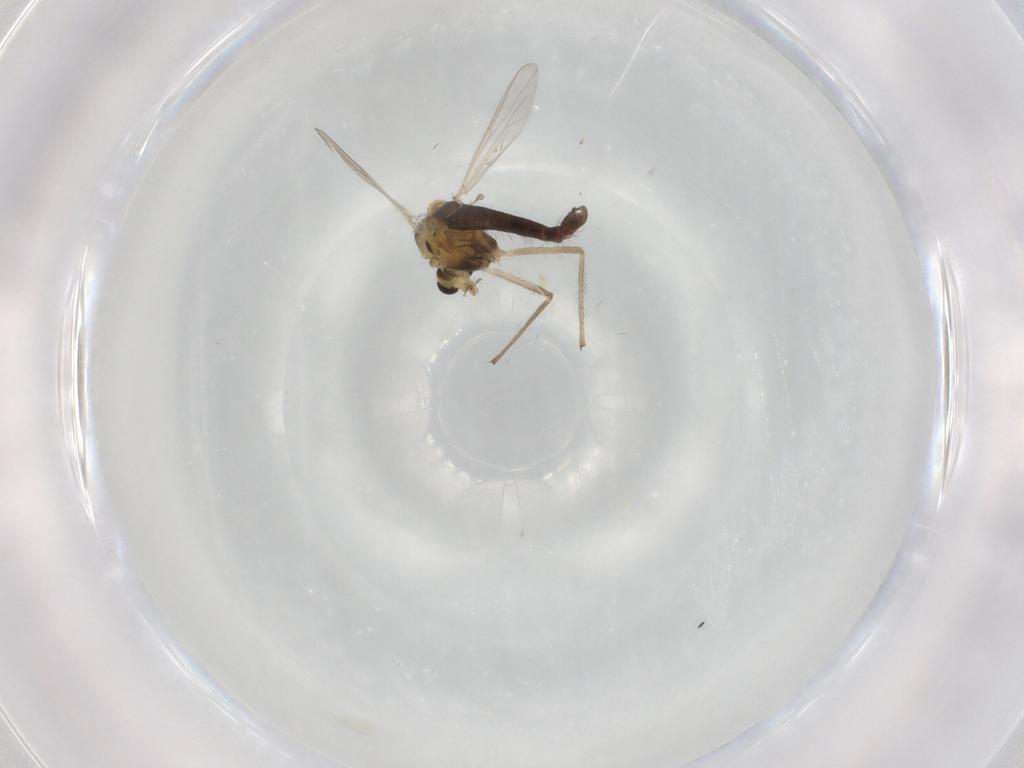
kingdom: Animalia
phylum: Arthropoda
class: Insecta
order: Diptera
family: Chironomidae
